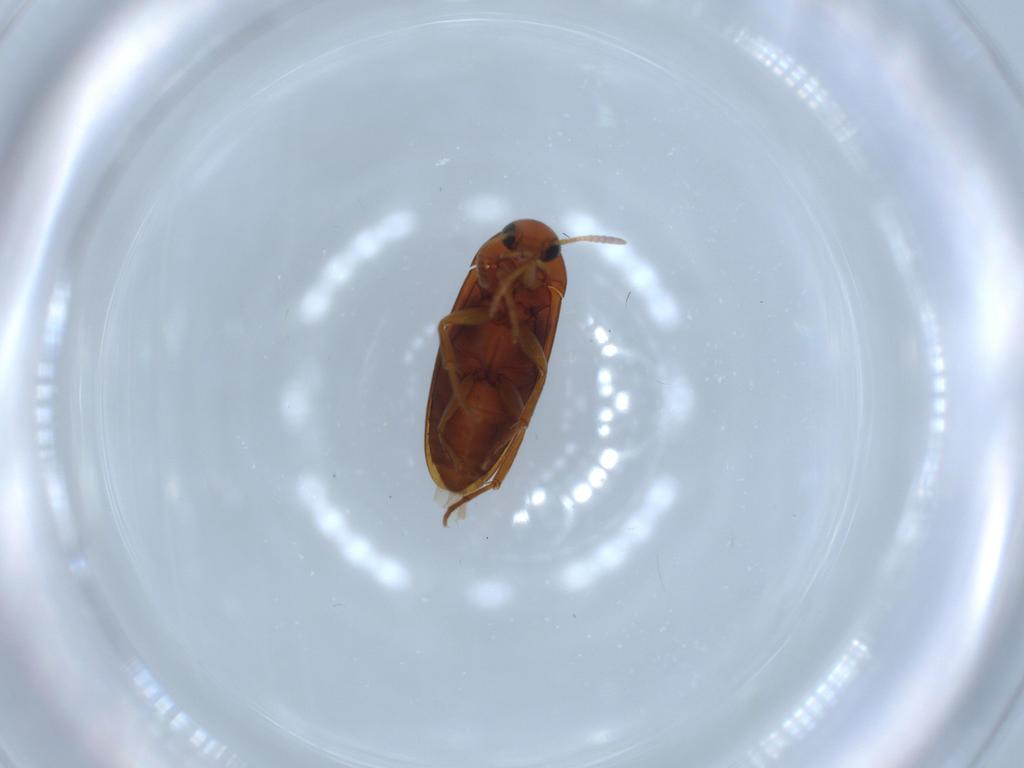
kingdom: Animalia
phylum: Arthropoda
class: Insecta
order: Coleoptera
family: Scraptiidae
